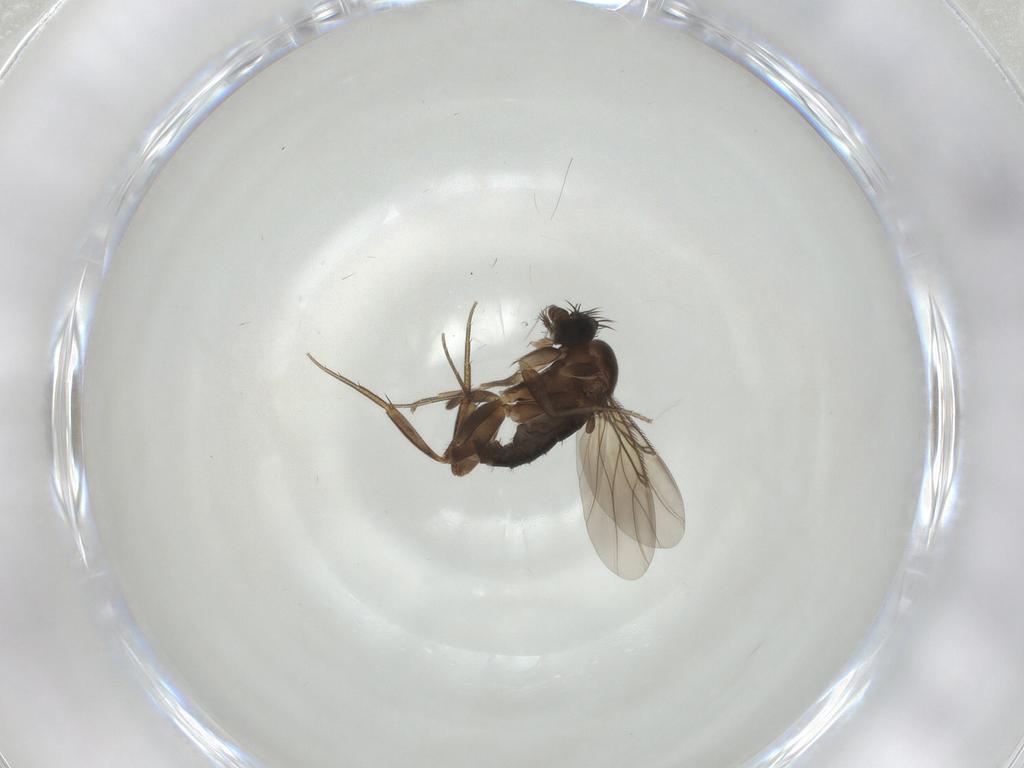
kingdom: Animalia
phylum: Arthropoda
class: Insecta
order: Diptera
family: Phoridae
